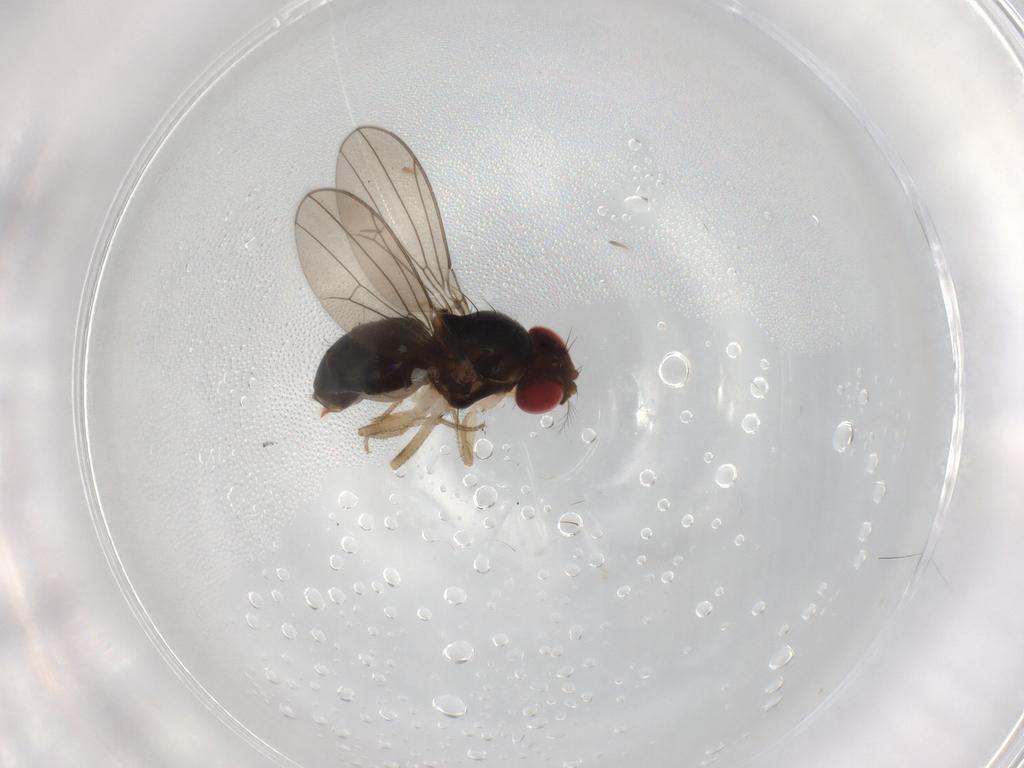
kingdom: Animalia
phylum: Arthropoda
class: Insecta
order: Diptera
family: Drosophilidae
